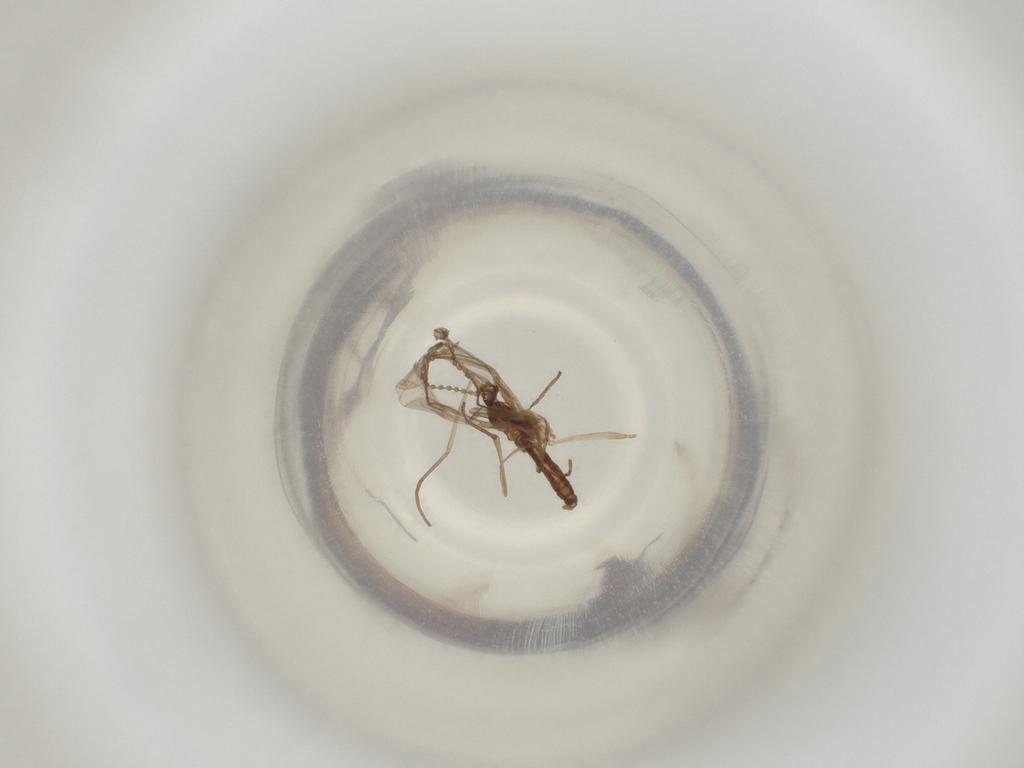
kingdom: Animalia
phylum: Arthropoda
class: Insecta
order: Diptera
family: Cecidomyiidae
